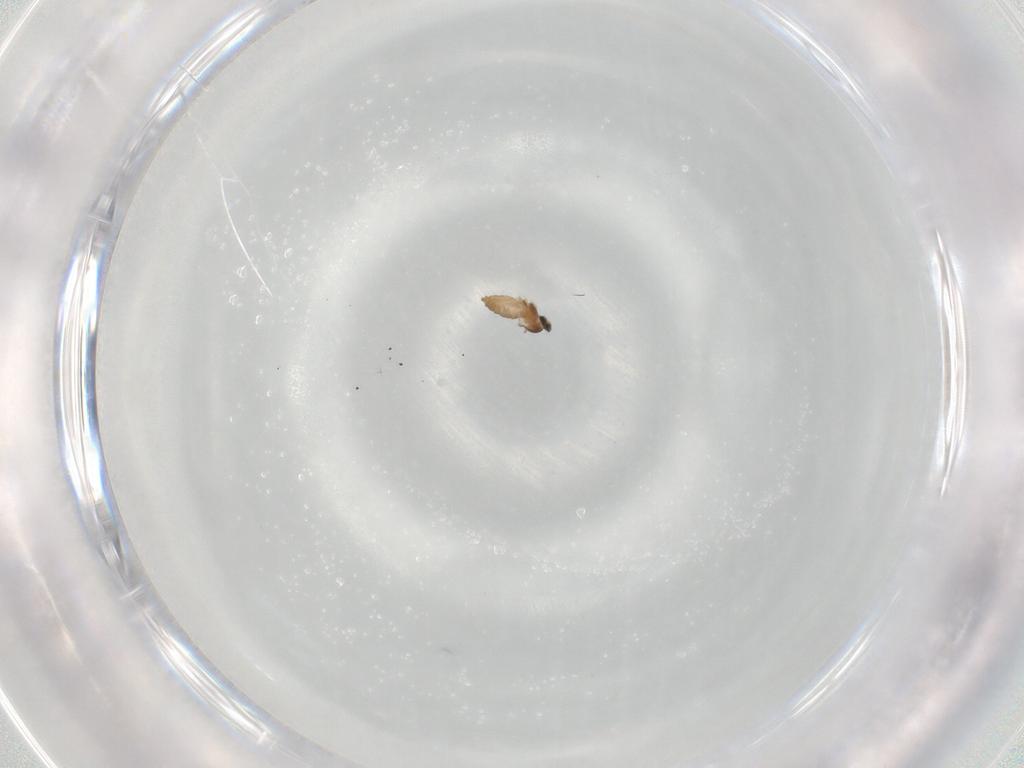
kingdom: Animalia
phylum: Arthropoda
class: Insecta
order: Diptera
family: Cecidomyiidae
